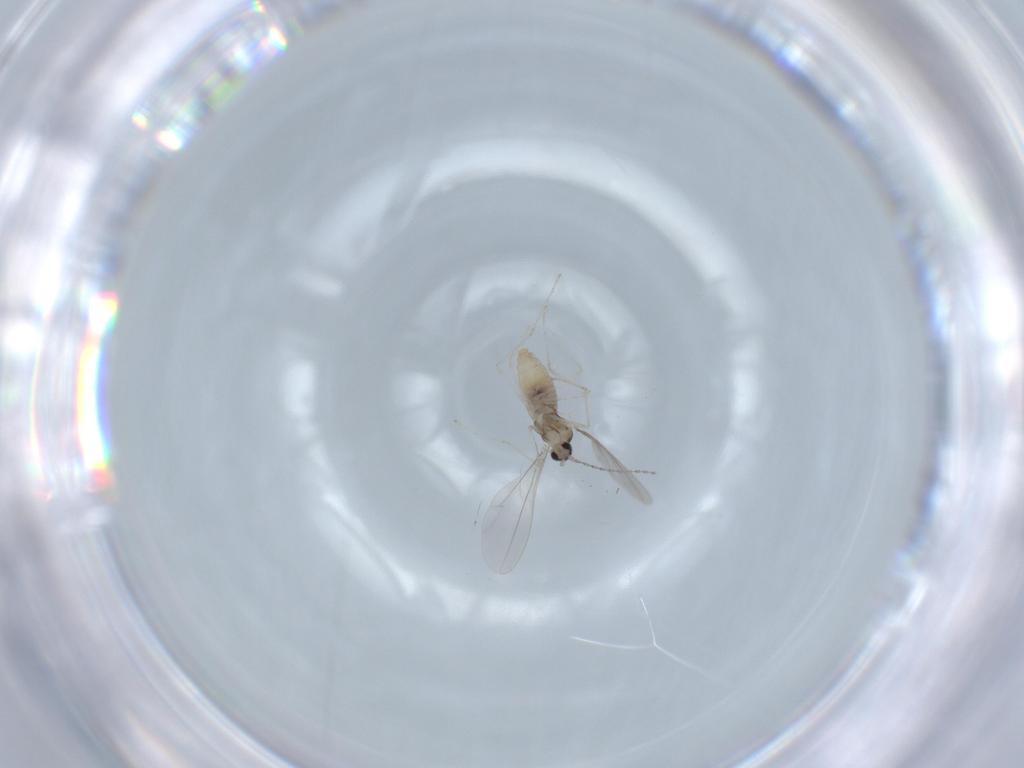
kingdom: Animalia
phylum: Arthropoda
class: Insecta
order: Diptera
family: Cecidomyiidae
